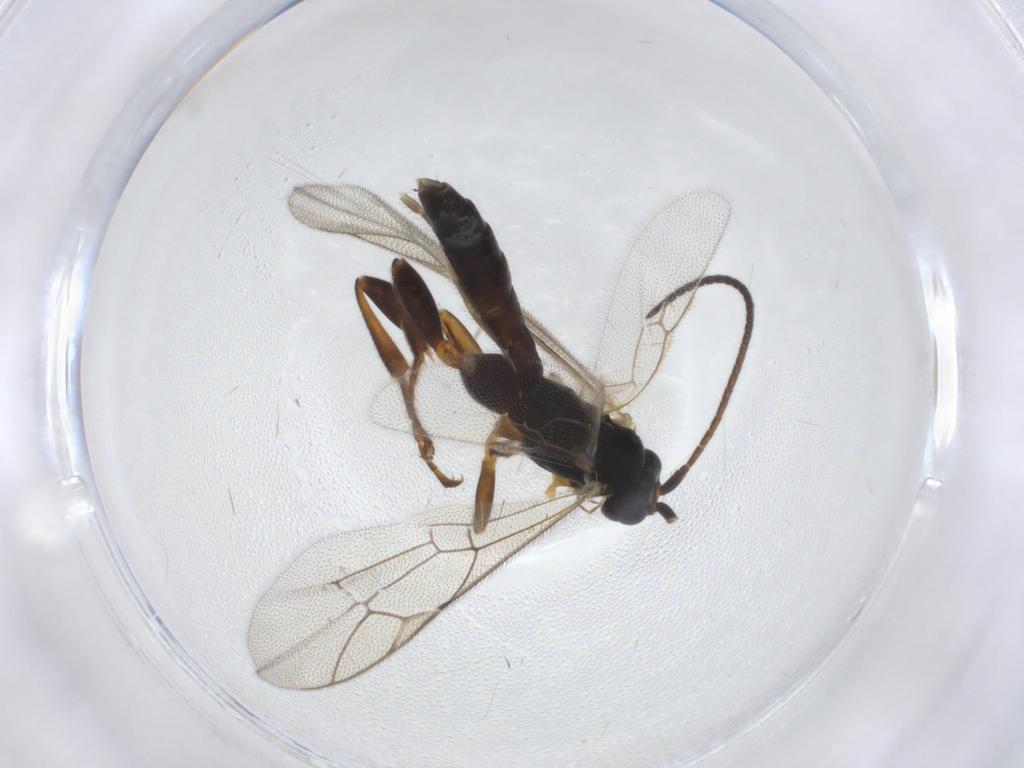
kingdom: Animalia
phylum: Arthropoda
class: Insecta
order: Hymenoptera
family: Ichneumonidae
